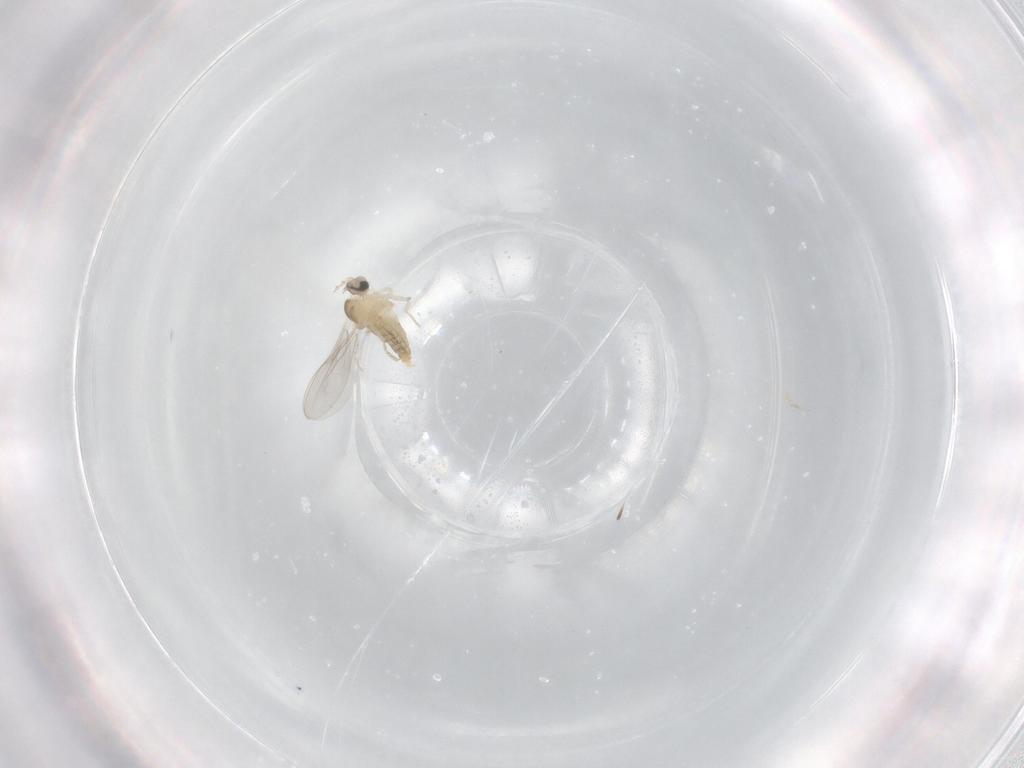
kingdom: Animalia
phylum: Arthropoda
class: Insecta
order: Diptera
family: Cecidomyiidae
